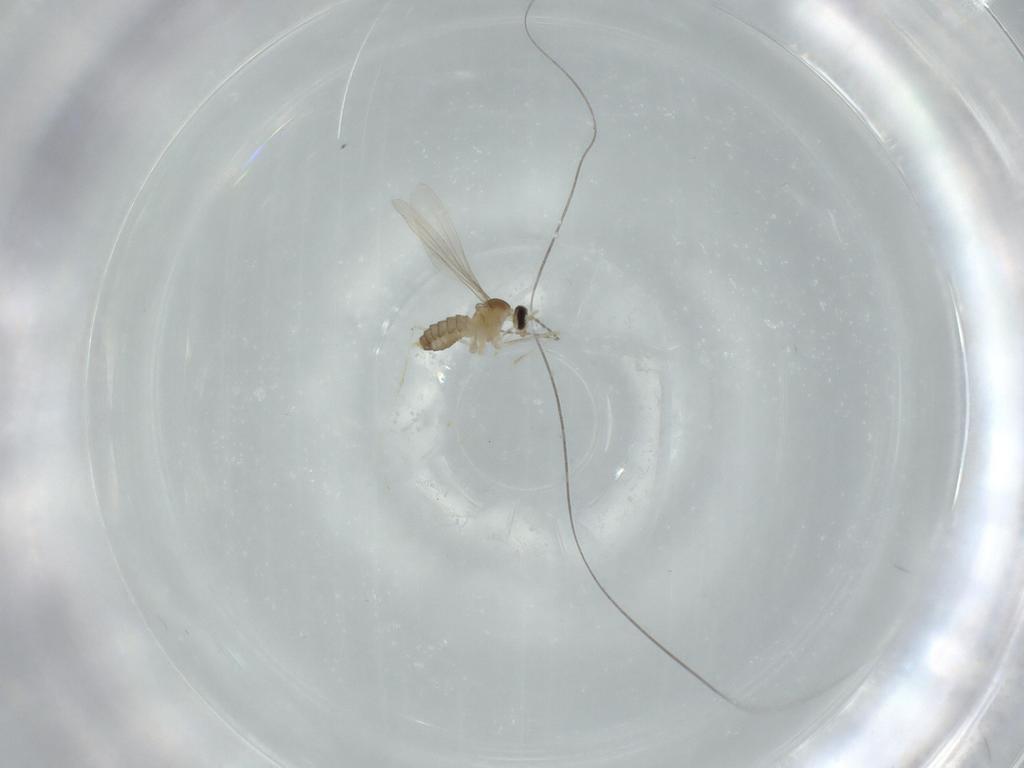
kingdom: Animalia
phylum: Arthropoda
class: Insecta
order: Diptera
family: Cecidomyiidae
